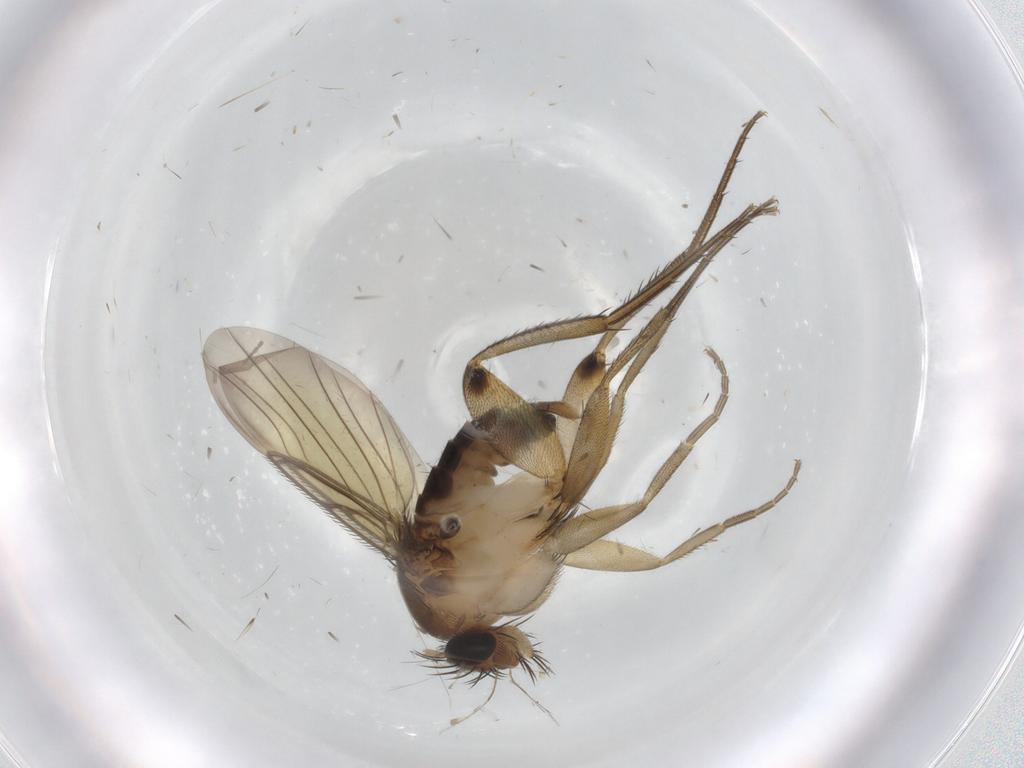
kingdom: Animalia
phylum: Arthropoda
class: Insecta
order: Diptera
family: Phoridae
